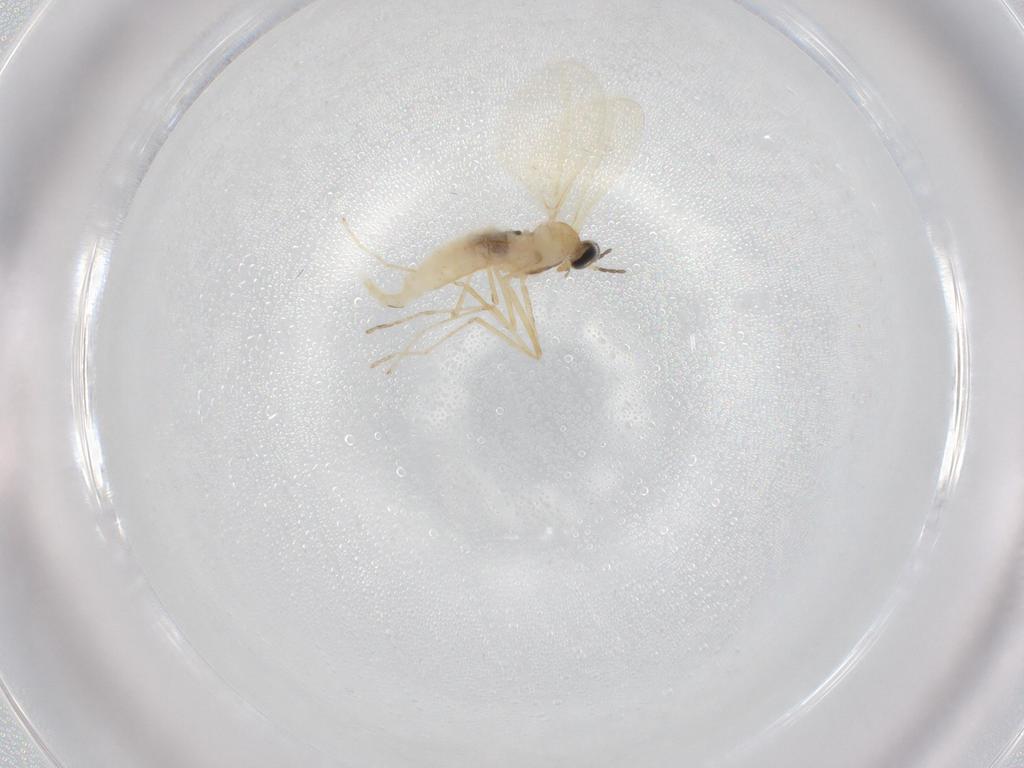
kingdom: Animalia
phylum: Arthropoda
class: Insecta
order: Diptera
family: Cecidomyiidae
